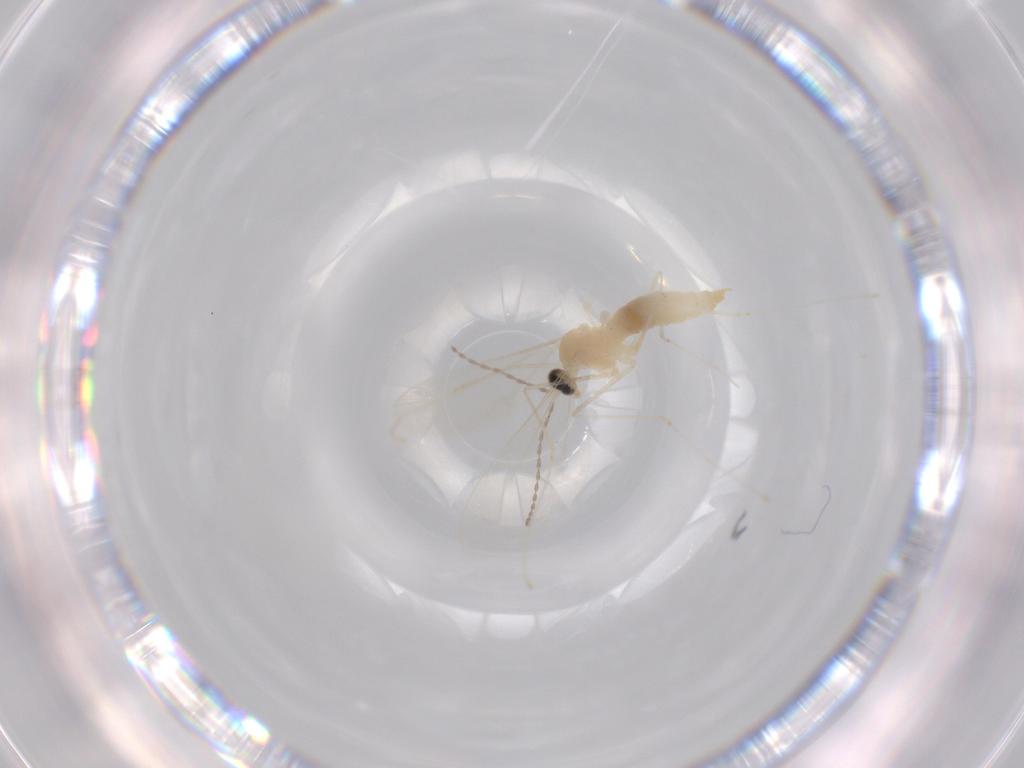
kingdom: Animalia
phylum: Arthropoda
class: Insecta
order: Diptera
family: Cecidomyiidae
